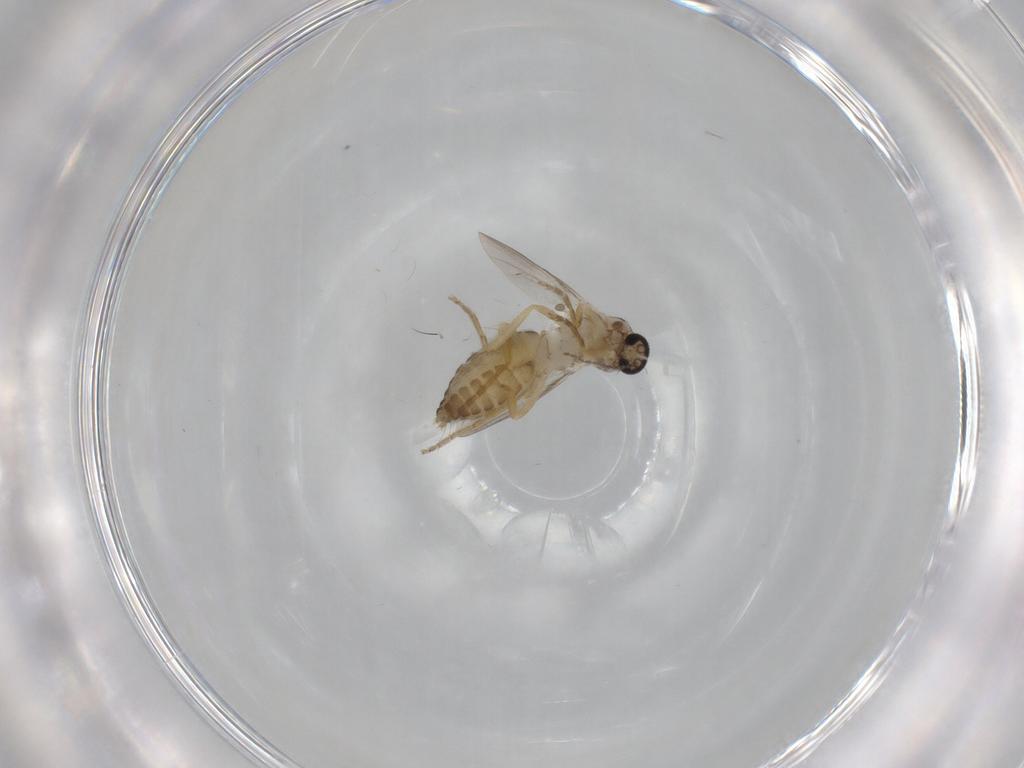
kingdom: Animalia
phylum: Arthropoda
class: Insecta
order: Diptera
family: Ceratopogonidae
